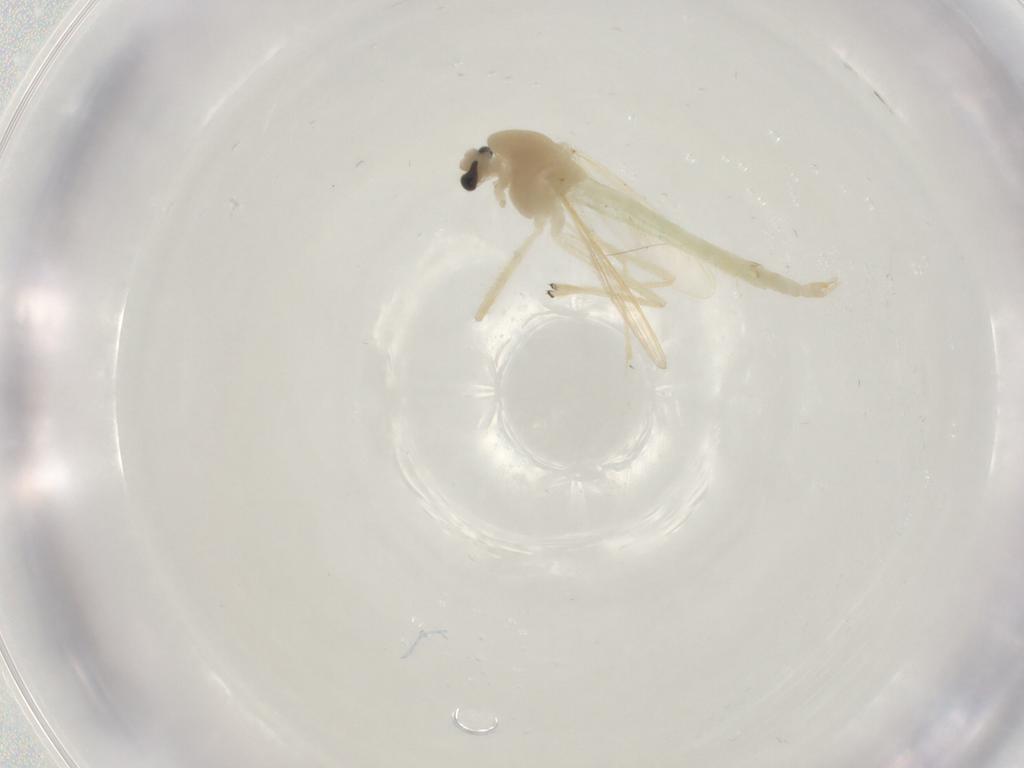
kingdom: Animalia
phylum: Arthropoda
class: Insecta
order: Diptera
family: Chironomidae
